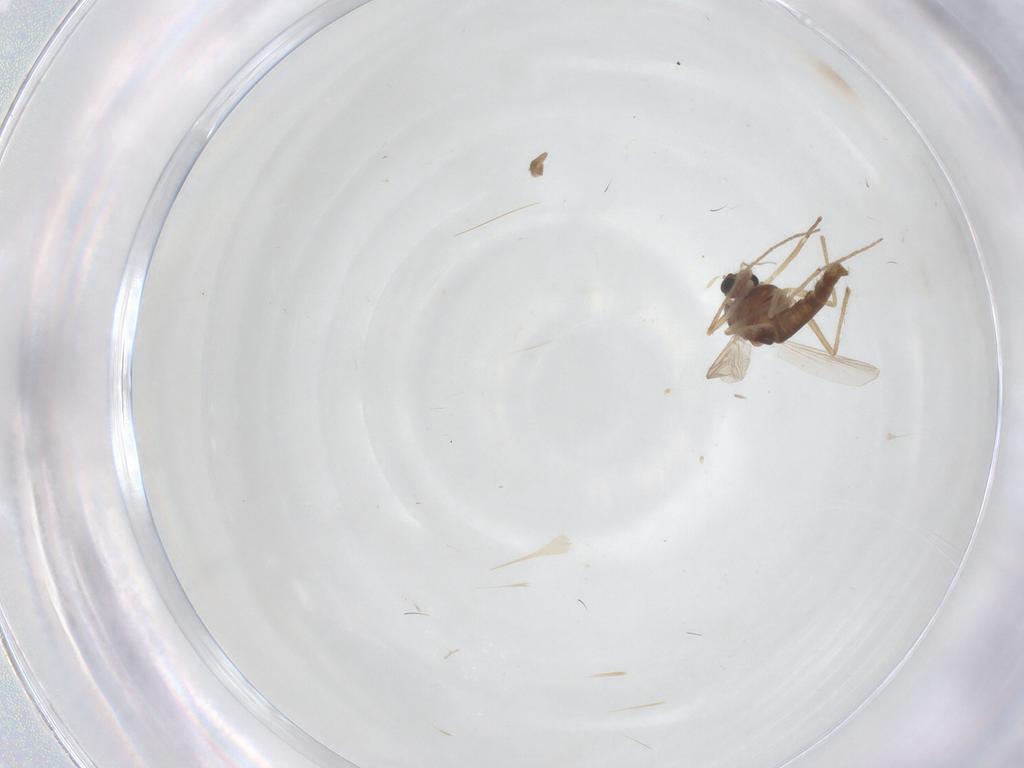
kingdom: Animalia
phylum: Arthropoda
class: Insecta
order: Diptera
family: Chironomidae
